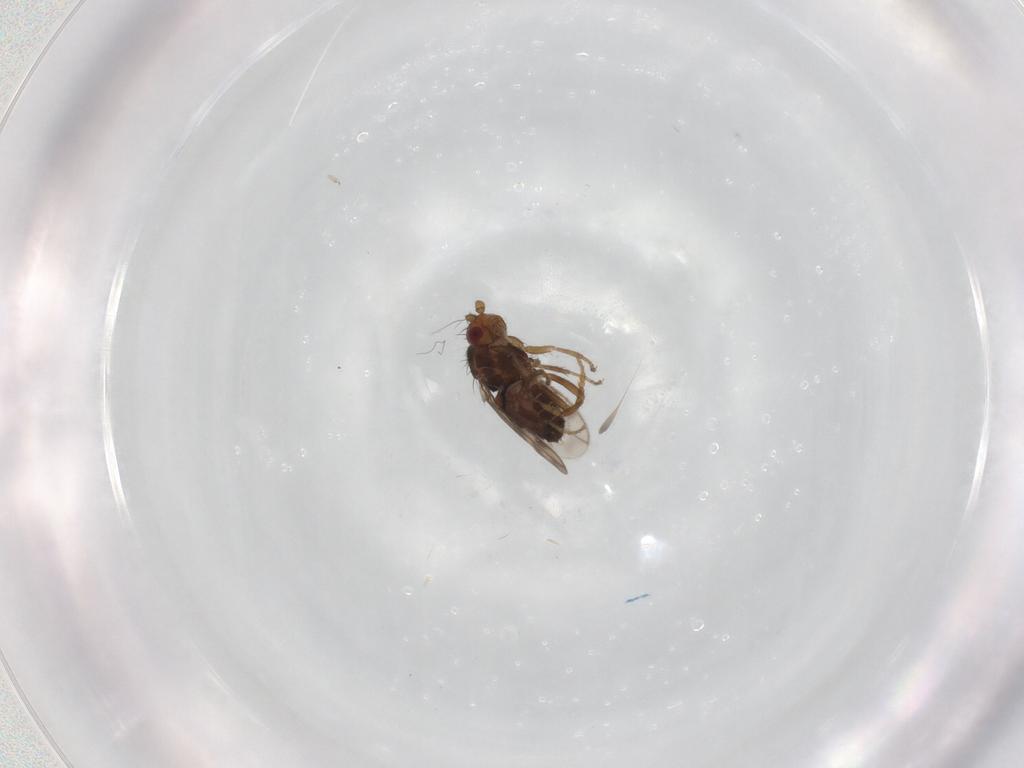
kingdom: Animalia
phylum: Arthropoda
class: Insecta
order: Diptera
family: Sphaeroceridae
